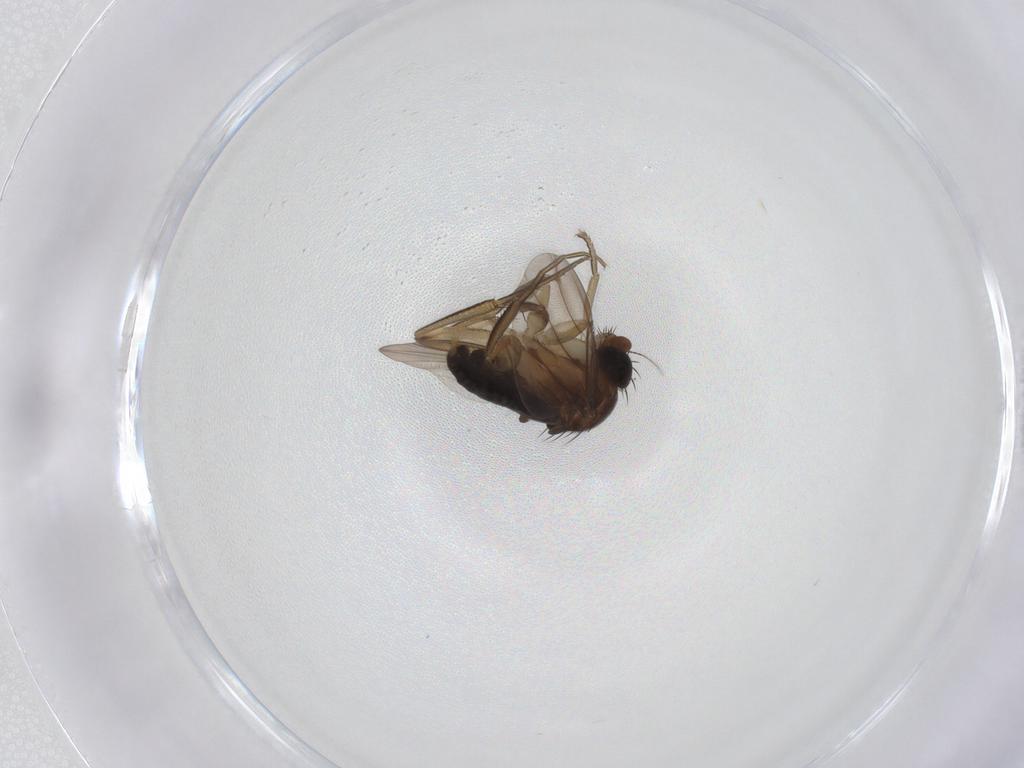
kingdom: Animalia
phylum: Arthropoda
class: Insecta
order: Diptera
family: Phoridae
